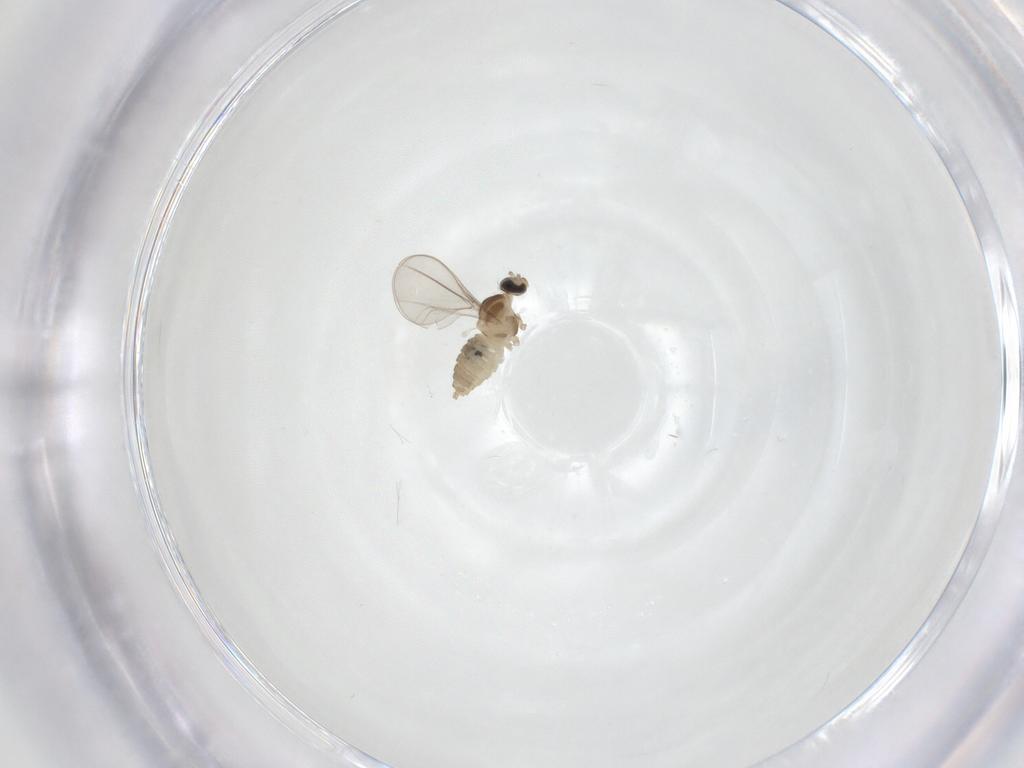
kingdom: Animalia
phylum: Arthropoda
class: Insecta
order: Diptera
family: Cecidomyiidae
